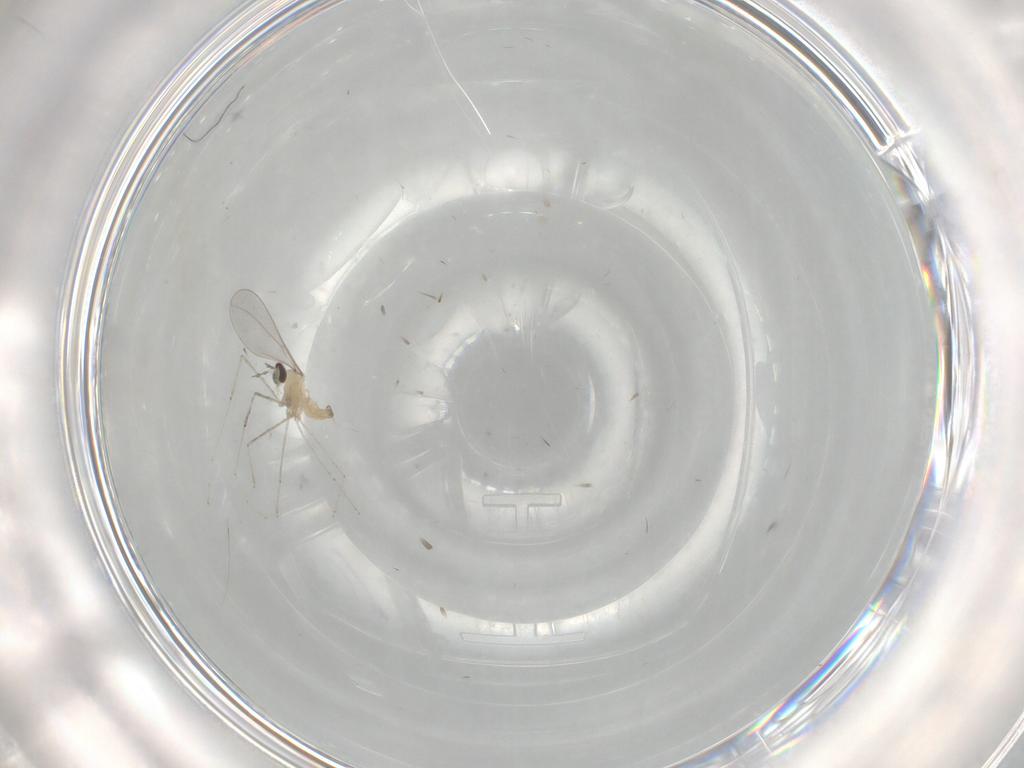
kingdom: Animalia
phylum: Arthropoda
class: Insecta
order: Diptera
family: Cecidomyiidae
